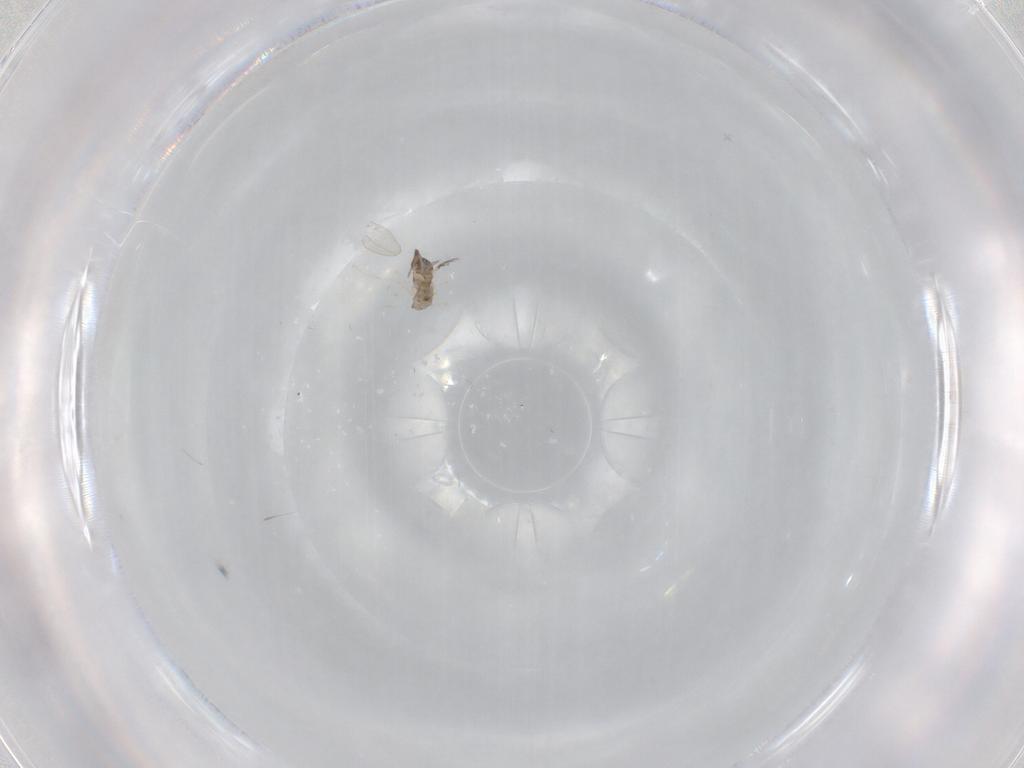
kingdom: Animalia
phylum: Arthropoda
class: Insecta
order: Diptera
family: Cecidomyiidae
